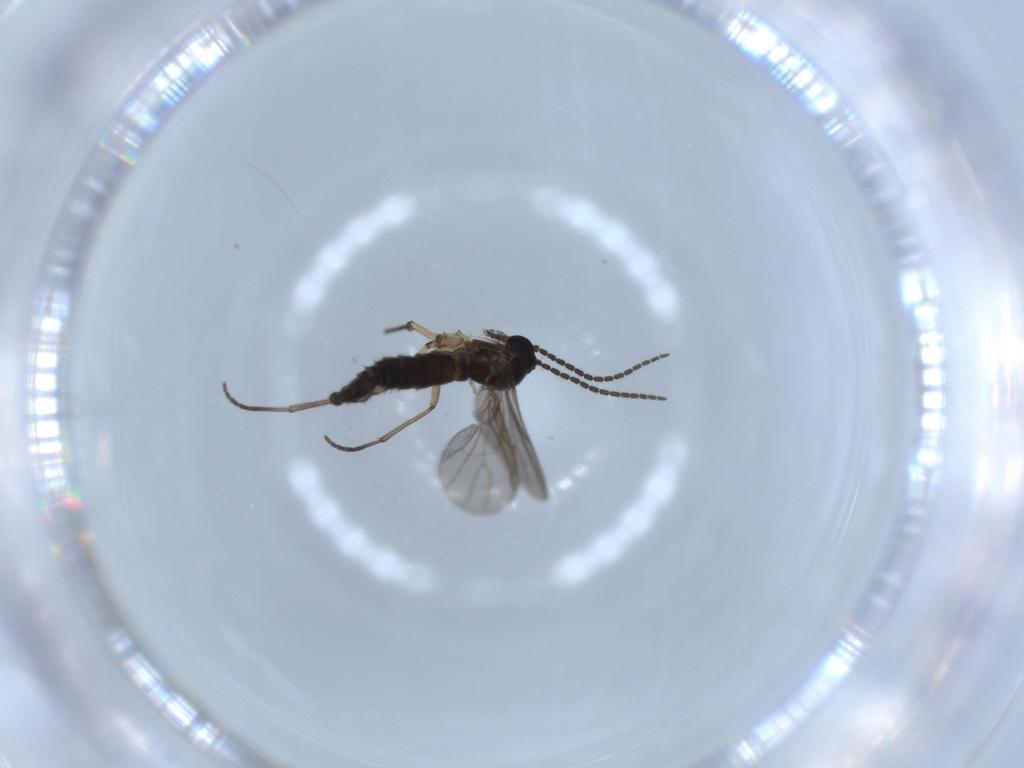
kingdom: Animalia
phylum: Arthropoda
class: Insecta
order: Diptera
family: Sciaridae
